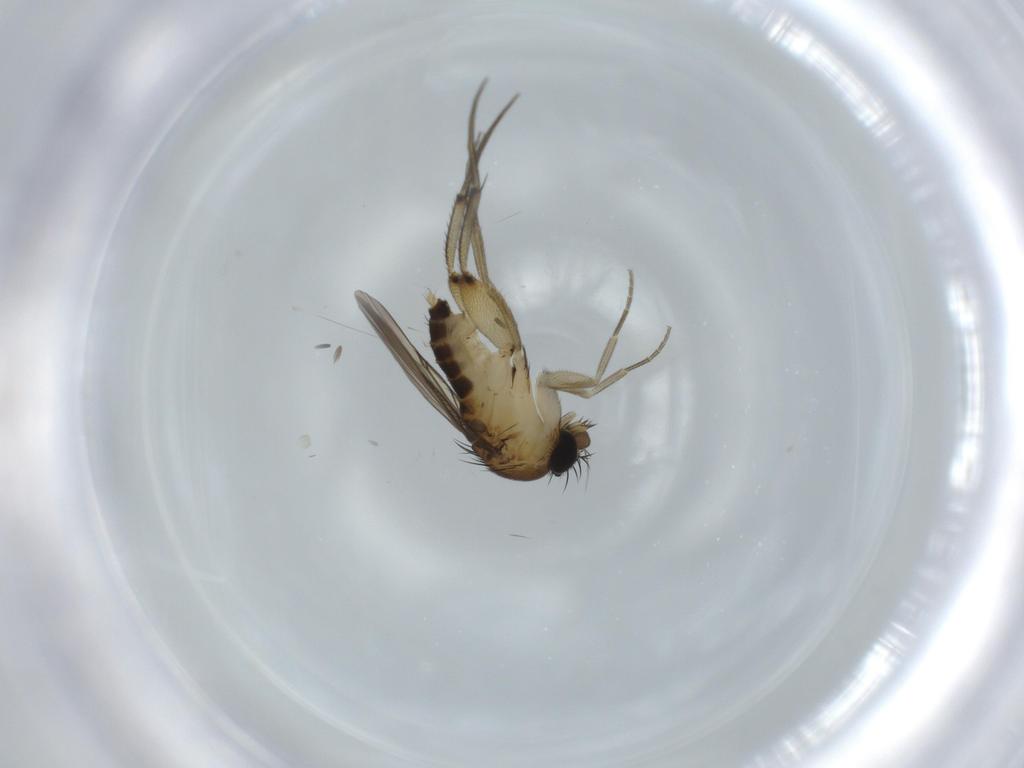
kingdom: Animalia
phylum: Arthropoda
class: Insecta
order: Diptera
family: Phoridae
